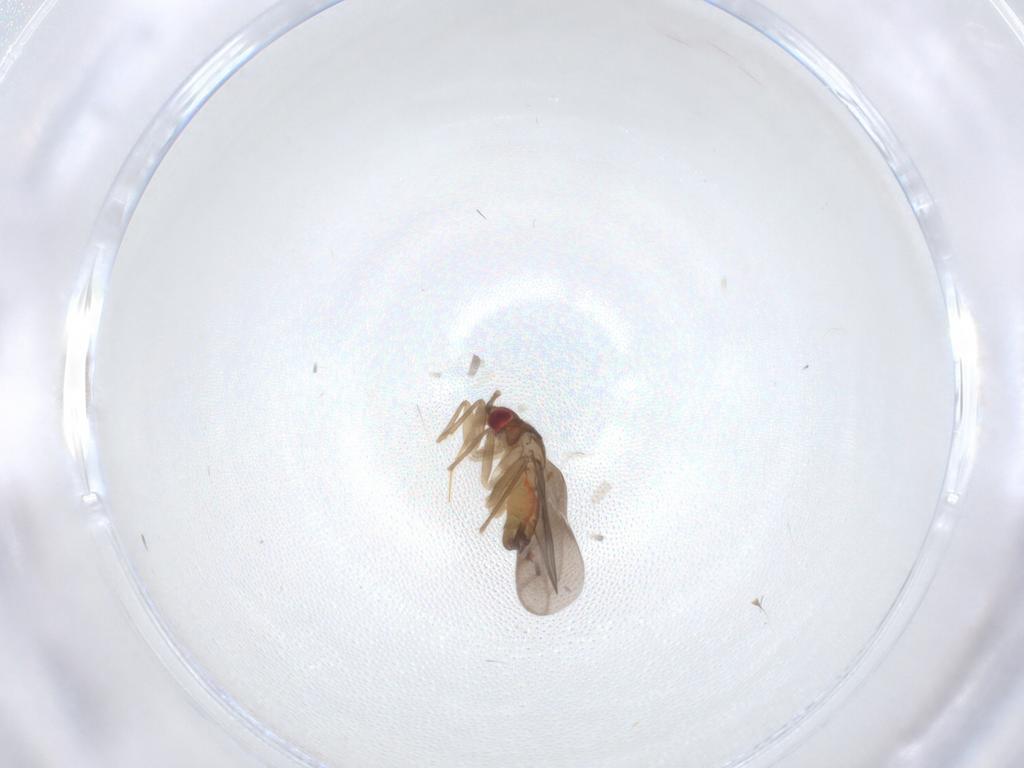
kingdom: Animalia
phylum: Arthropoda
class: Insecta
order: Hemiptera
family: Ceratocombidae
